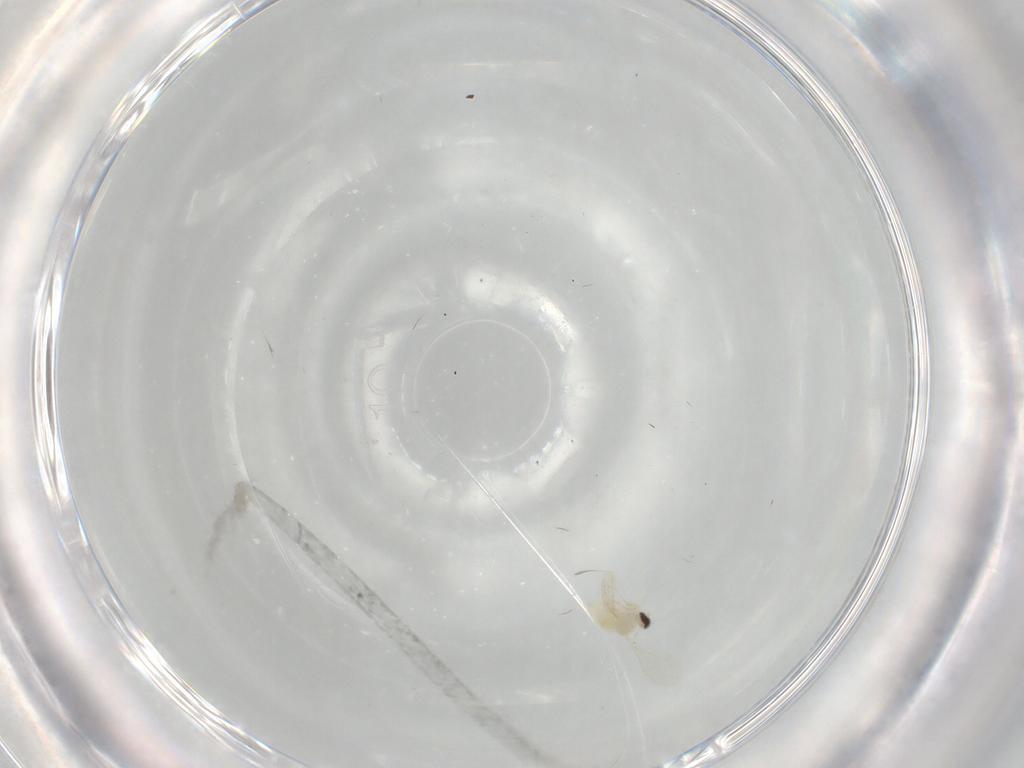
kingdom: Animalia
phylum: Arthropoda
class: Insecta
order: Diptera
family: Cecidomyiidae
